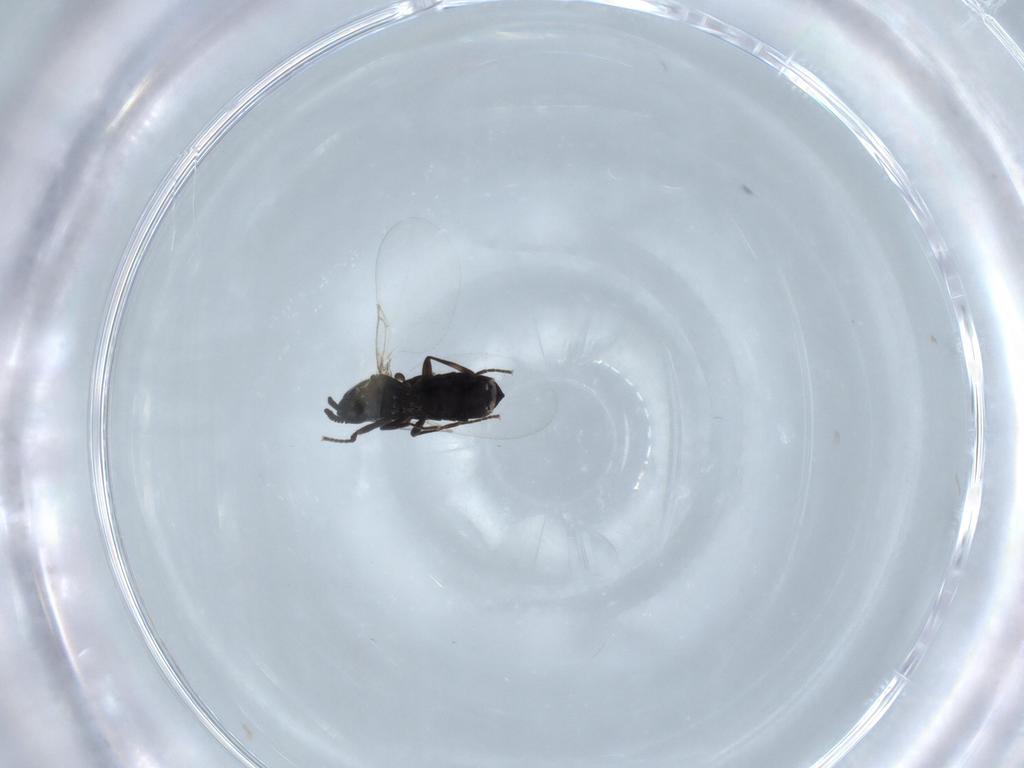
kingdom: Animalia
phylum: Arthropoda
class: Insecta
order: Diptera
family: Scatopsidae
